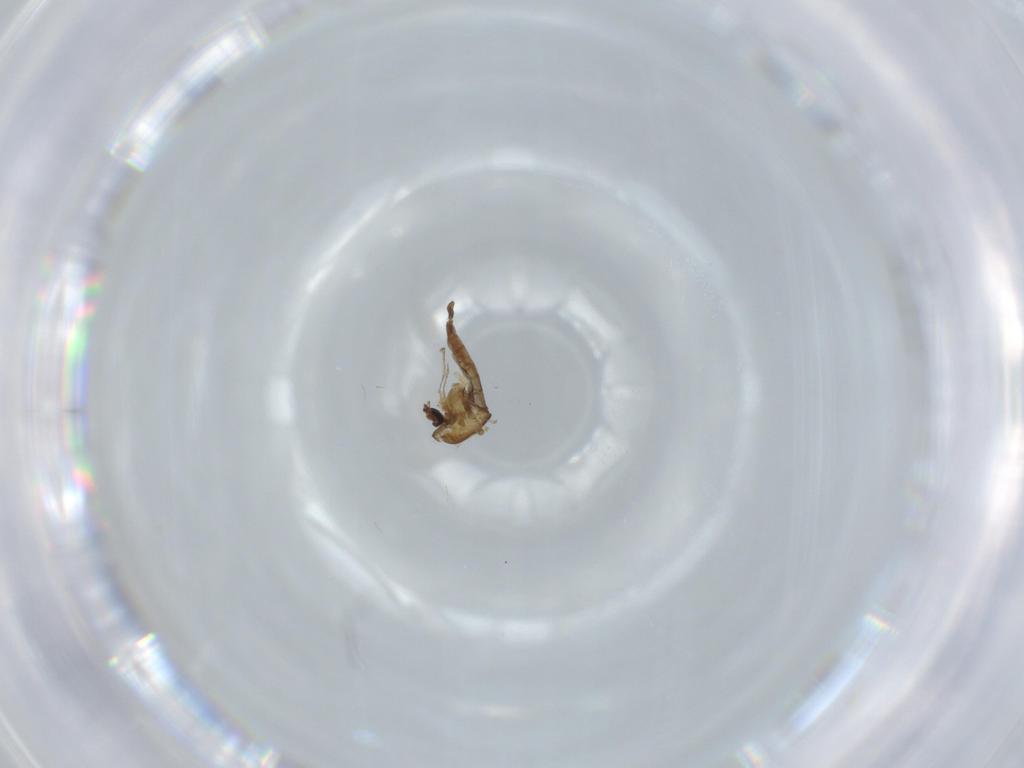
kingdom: Animalia
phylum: Arthropoda
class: Insecta
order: Diptera
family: Chironomidae
